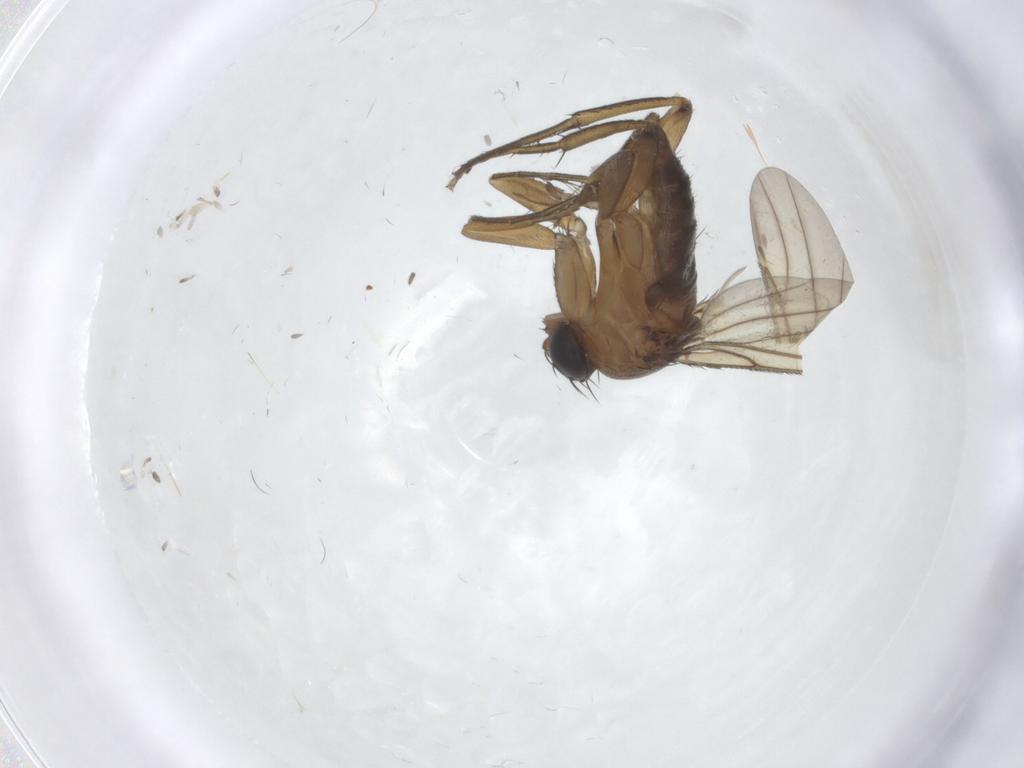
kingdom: Animalia
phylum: Arthropoda
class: Insecta
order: Diptera
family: Phoridae
